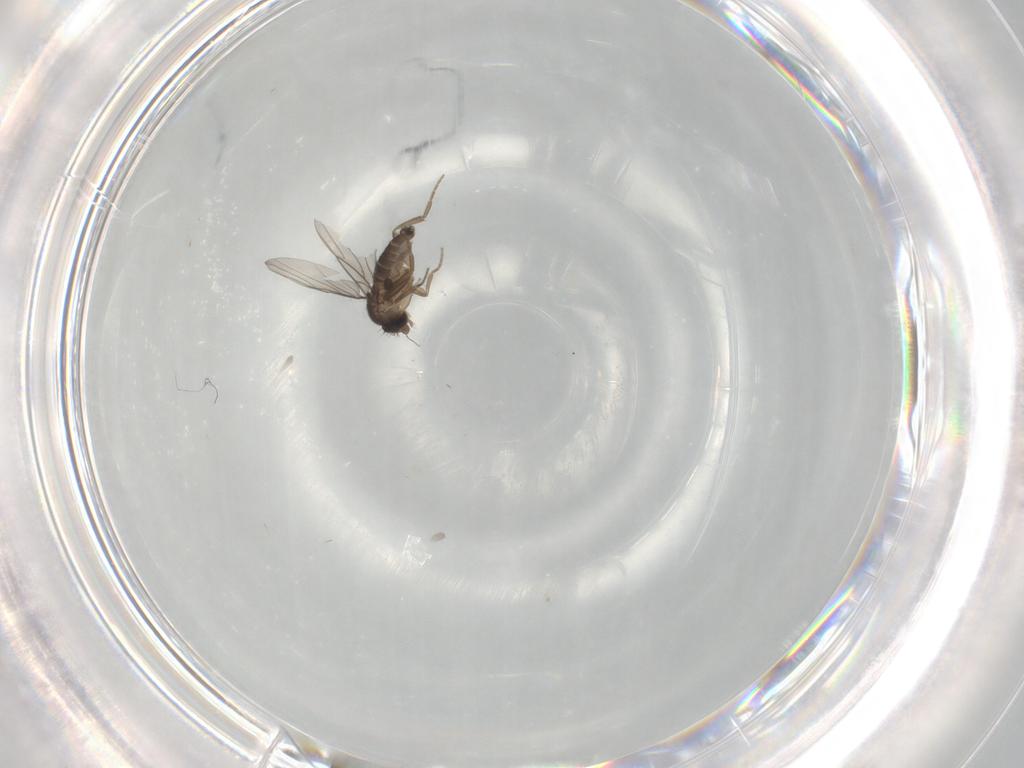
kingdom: Animalia
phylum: Arthropoda
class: Insecta
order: Diptera
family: Phoridae
